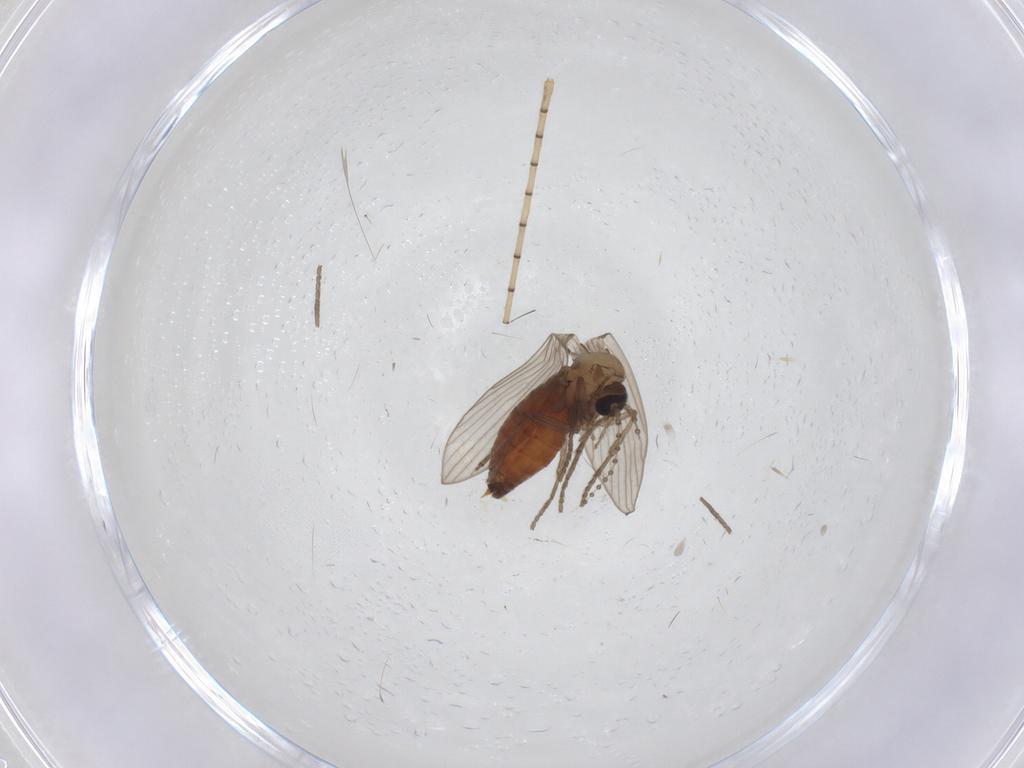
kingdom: Animalia
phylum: Arthropoda
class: Insecta
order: Diptera
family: Psychodidae
